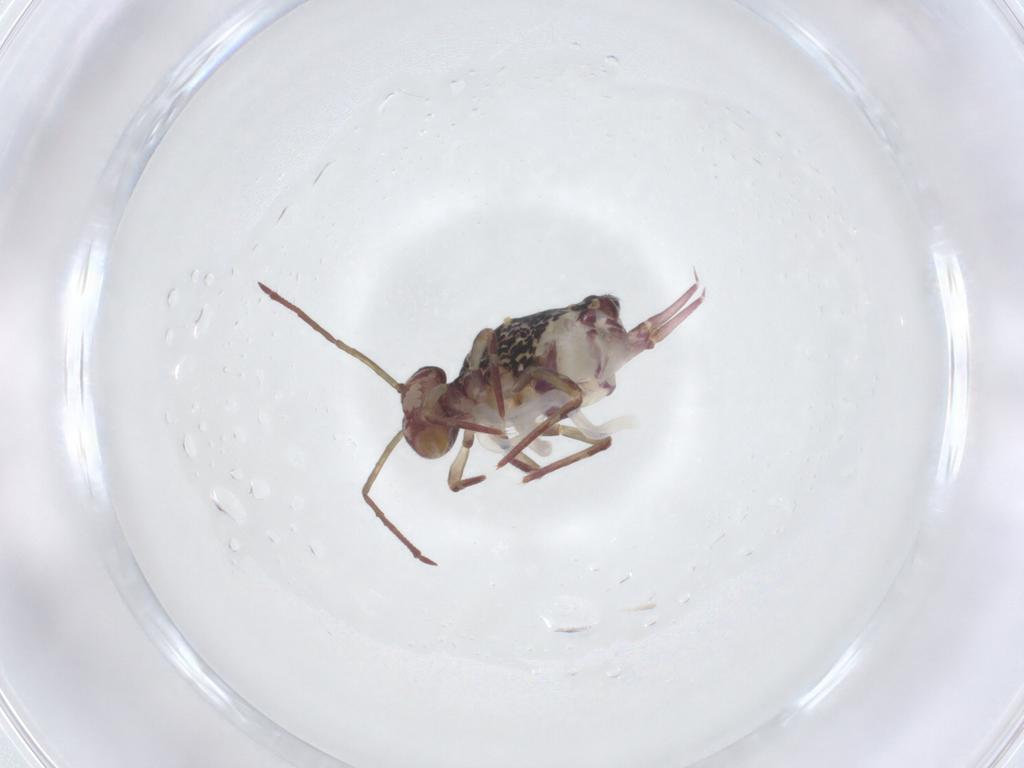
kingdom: Animalia
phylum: Arthropoda
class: Collembola
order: Symphypleona
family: Dicyrtomidae
